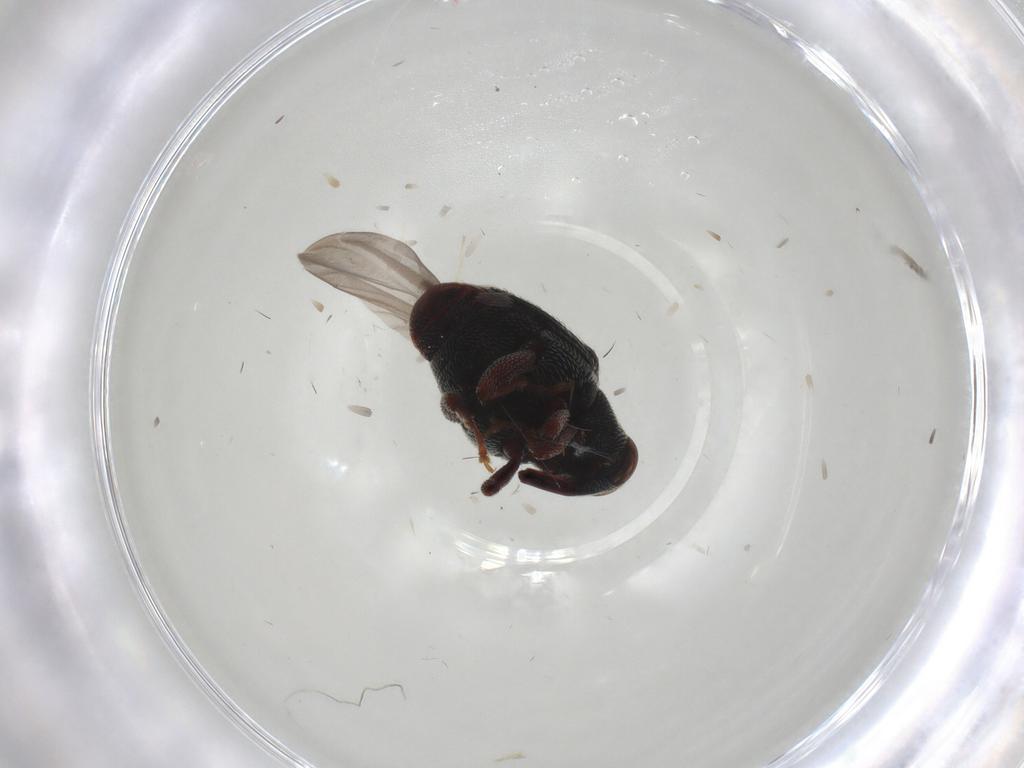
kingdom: Animalia
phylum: Arthropoda
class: Insecta
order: Coleoptera
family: Curculionidae
